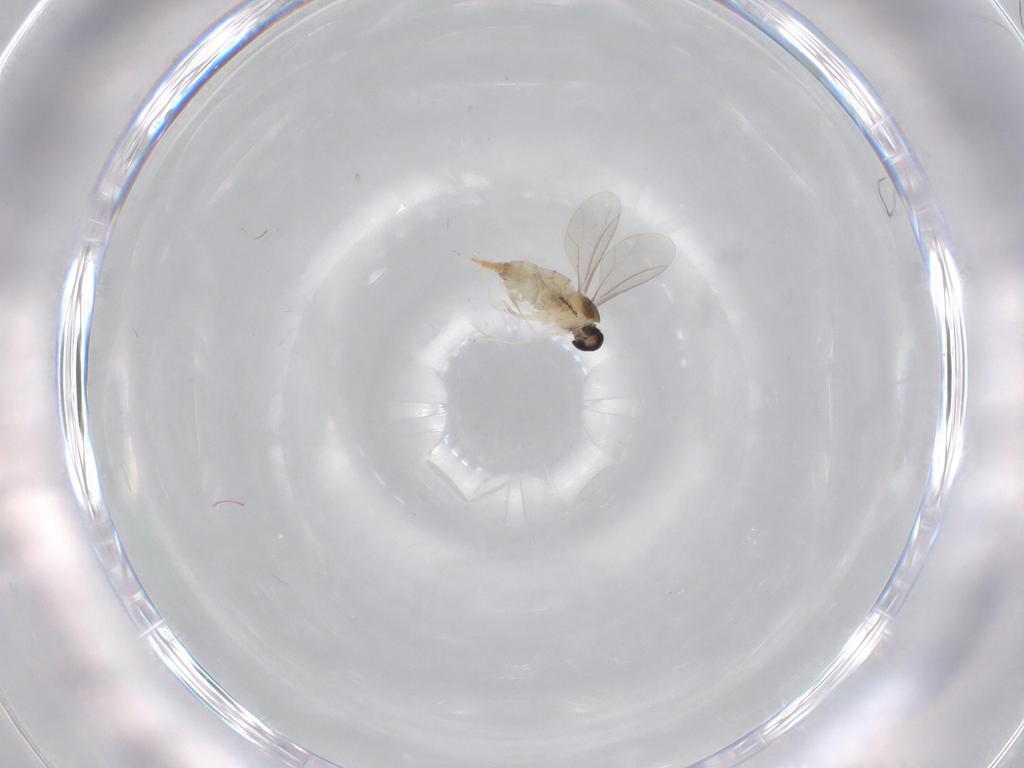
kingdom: Animalia
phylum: Arthropoda
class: Insecta
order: Diptera
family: Cecidomyiidae
